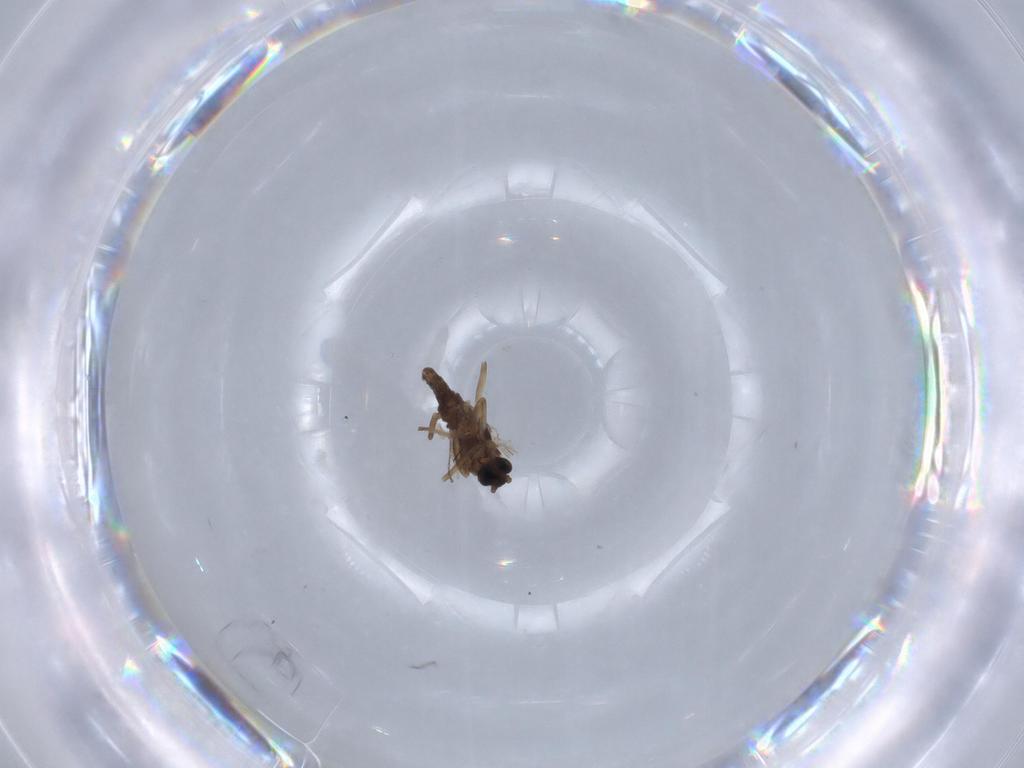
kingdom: Animalia
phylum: Arthropoda
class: Insecta
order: Diptera
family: Cecidomyiidae
